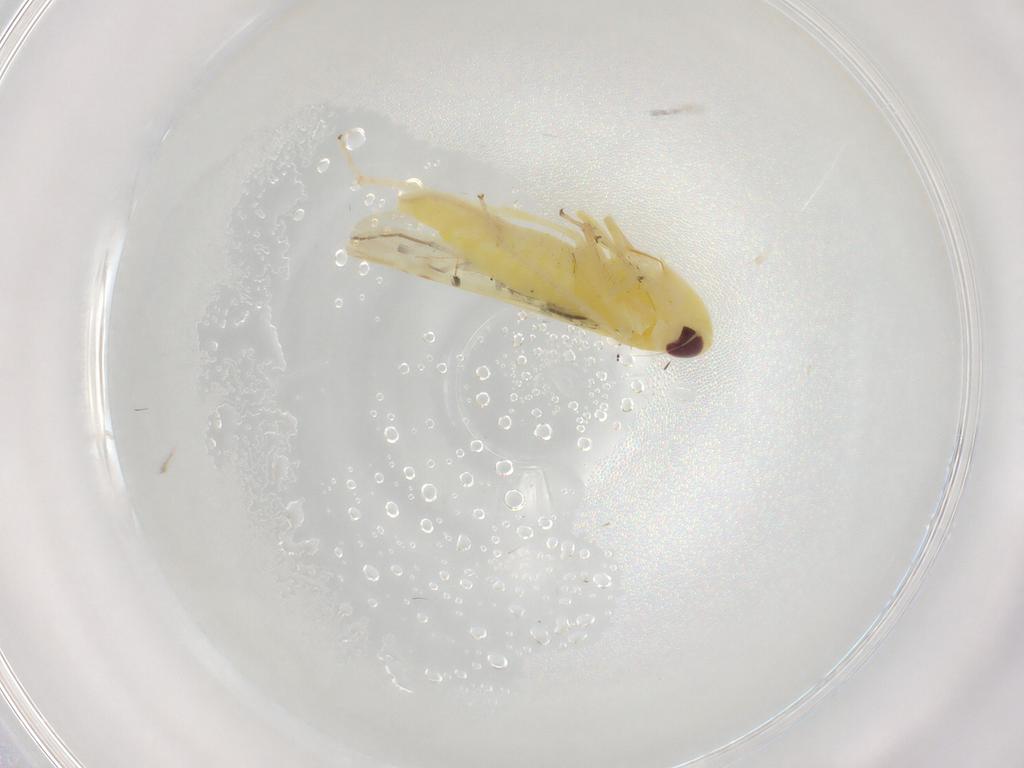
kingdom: Animalia
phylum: Arthropoda
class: Insecta
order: Hemiptera
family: Cicadellidae
